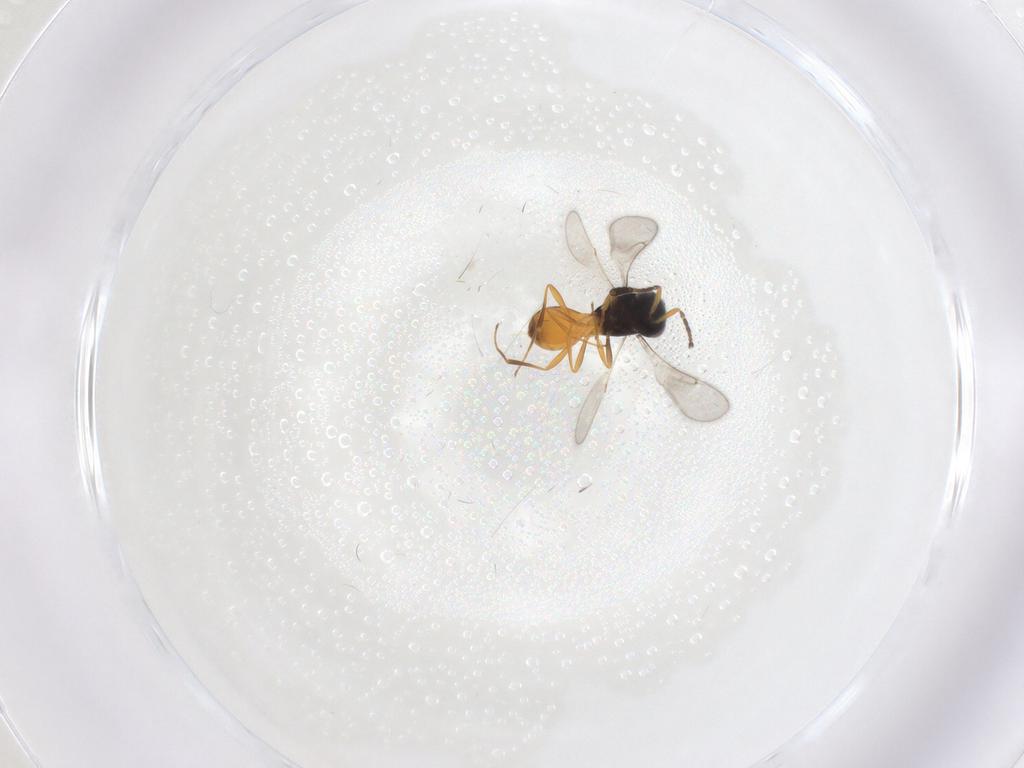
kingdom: Animalia
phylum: Arthropoda
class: Insecta
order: Hymenoptera
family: Scelionidae
